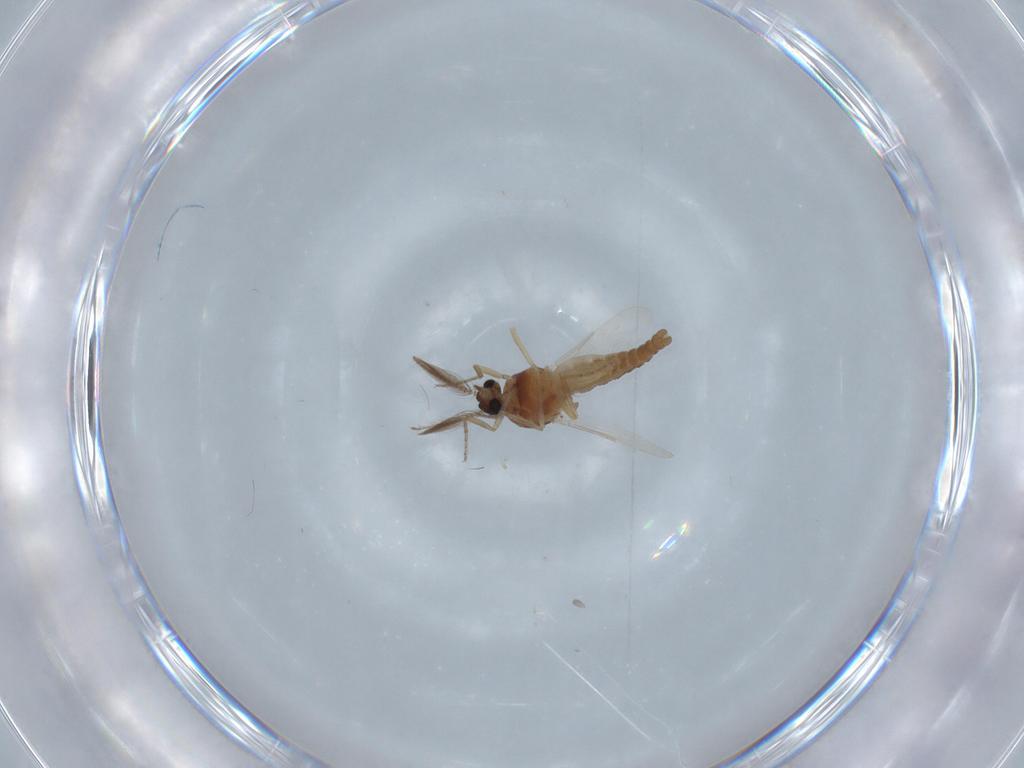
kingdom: Animalia
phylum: Arthropoda
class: Insecta
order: Diptera
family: Ceratopogonidae
